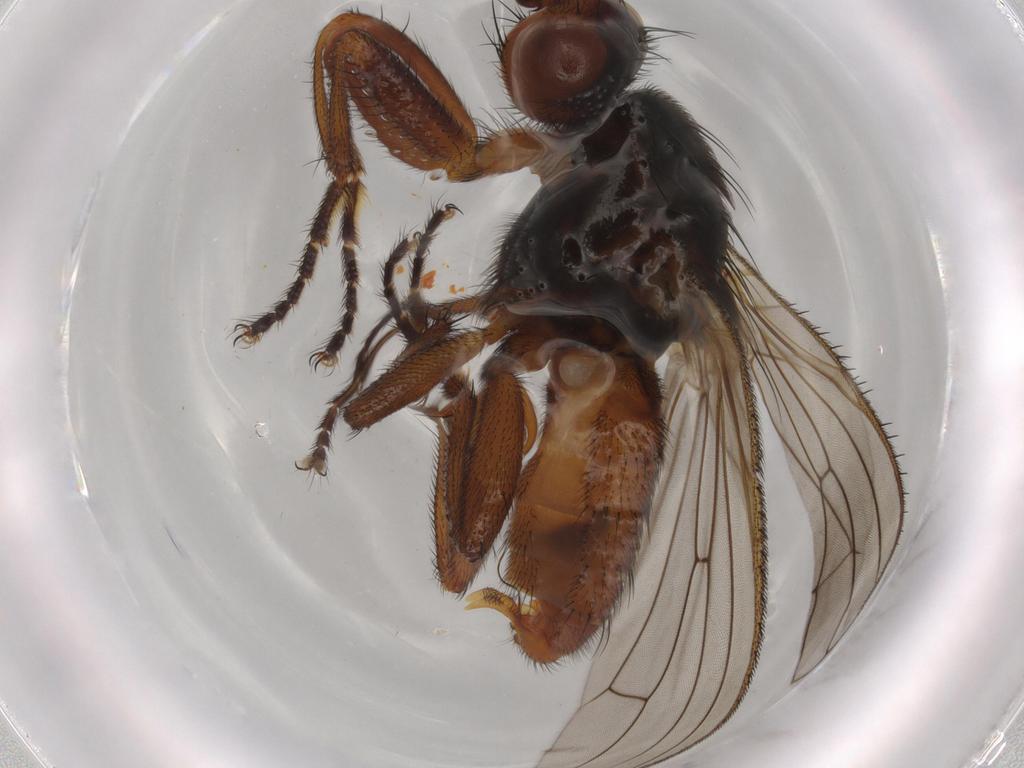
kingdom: Animalia
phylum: Arthropoda
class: Insecta
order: Diptera
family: Heleomyzidae
